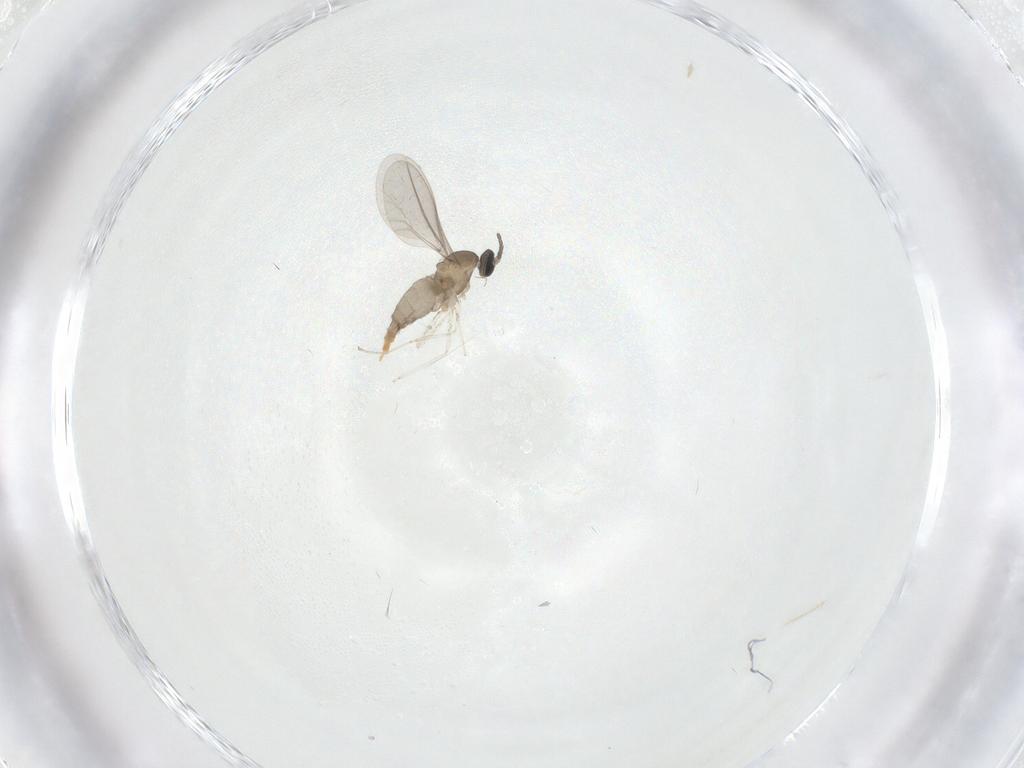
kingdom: Animalia
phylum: Arthropoda
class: Insecta
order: Diptera
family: Cecidomyiidae
